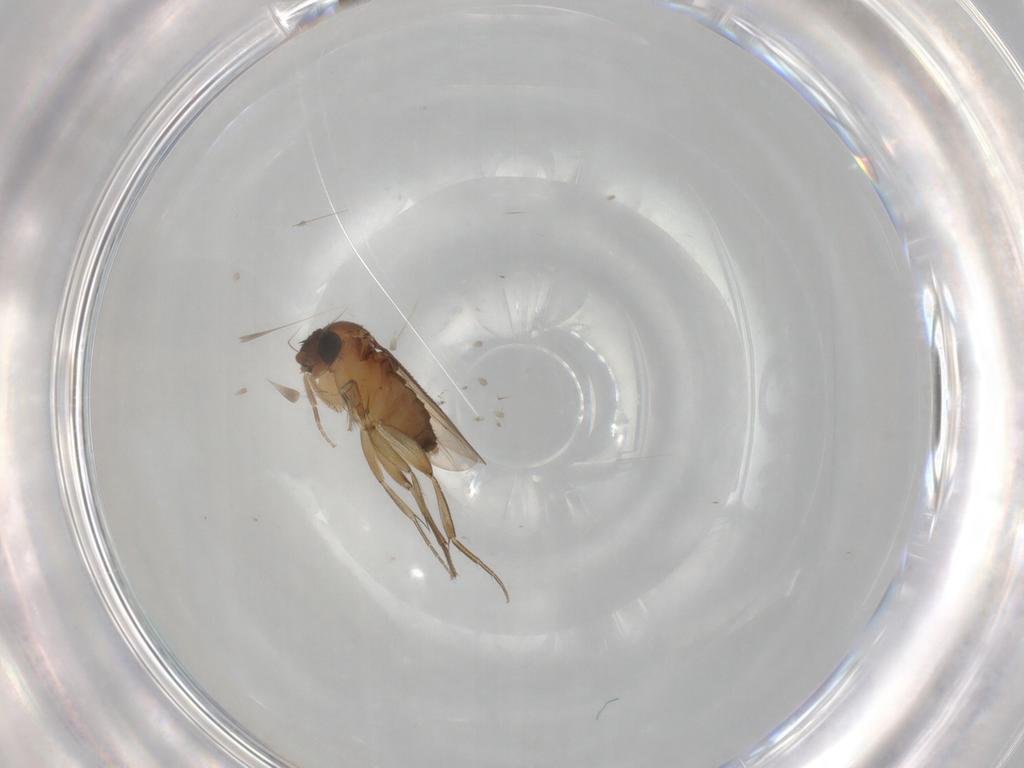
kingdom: Animalia
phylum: Arthropoda
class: Insecta
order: Diptera
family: Phoridae
